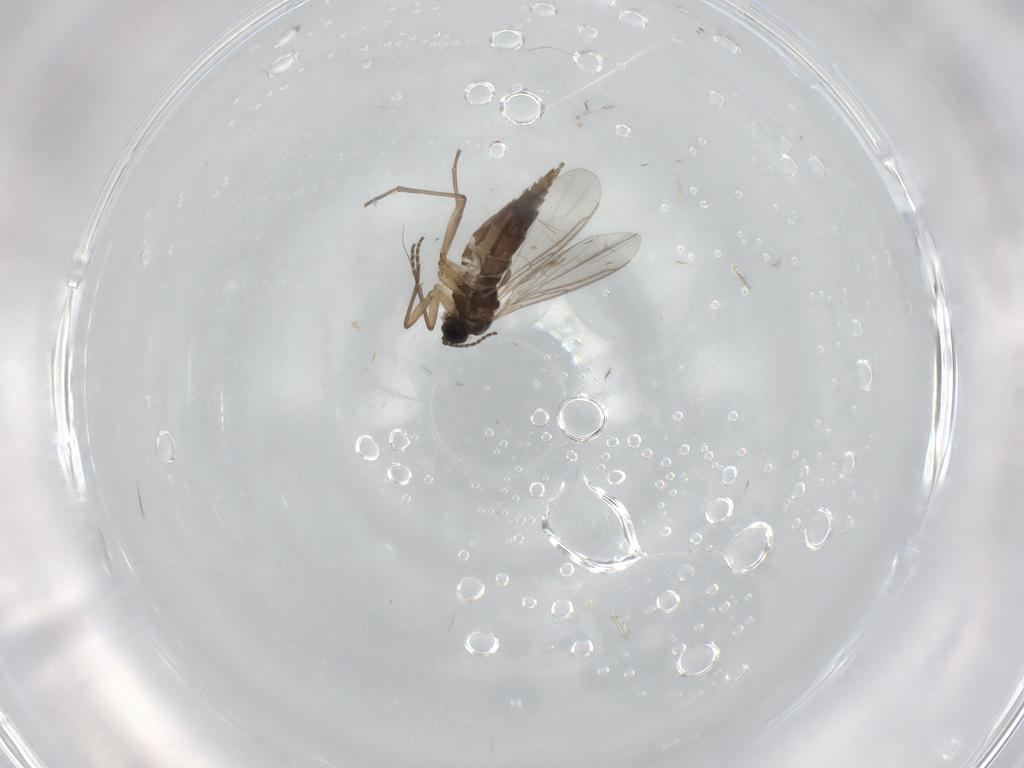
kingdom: Animalia
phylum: Arthropoda
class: Insecta
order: Diptera
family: Sciaridae
